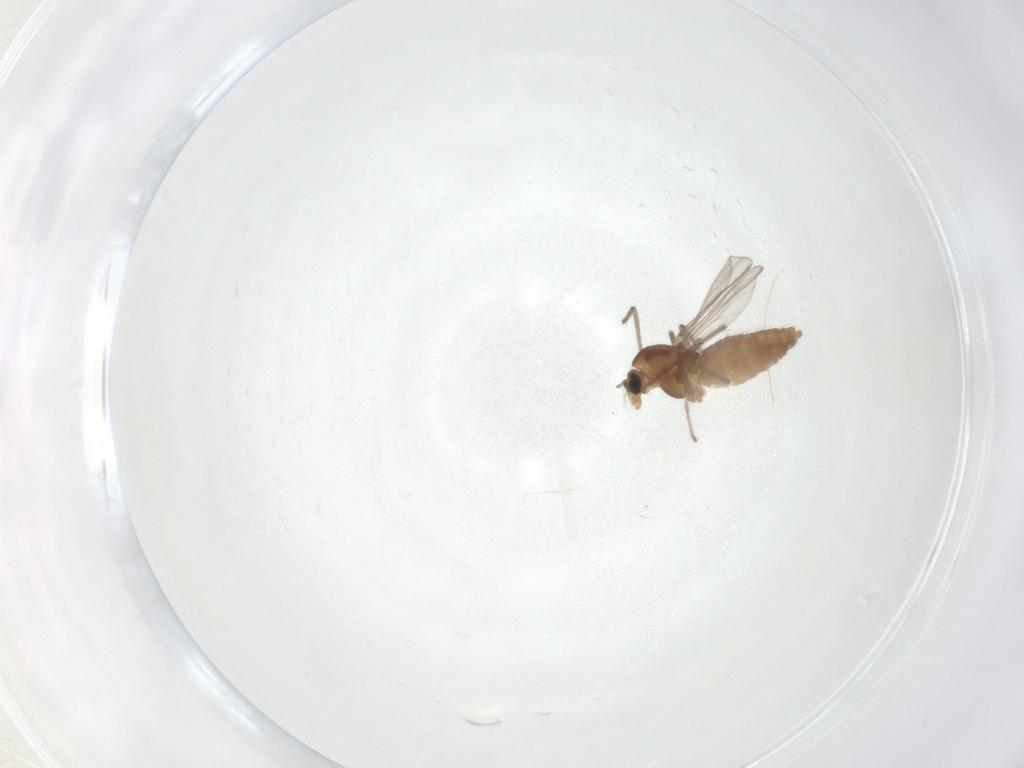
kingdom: Animalia
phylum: Arthropoda
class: Insecta
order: Diptera
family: Chironomidae
